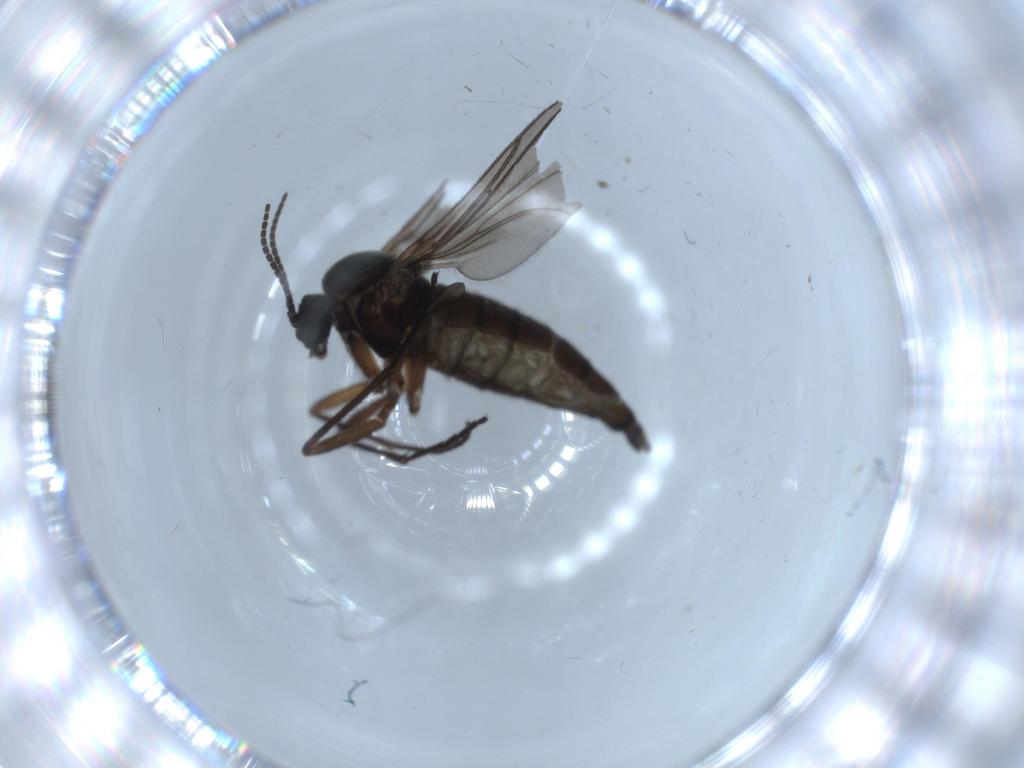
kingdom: Animalia
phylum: Arthropoda
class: Insecta
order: Diptera
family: Sciaridae
